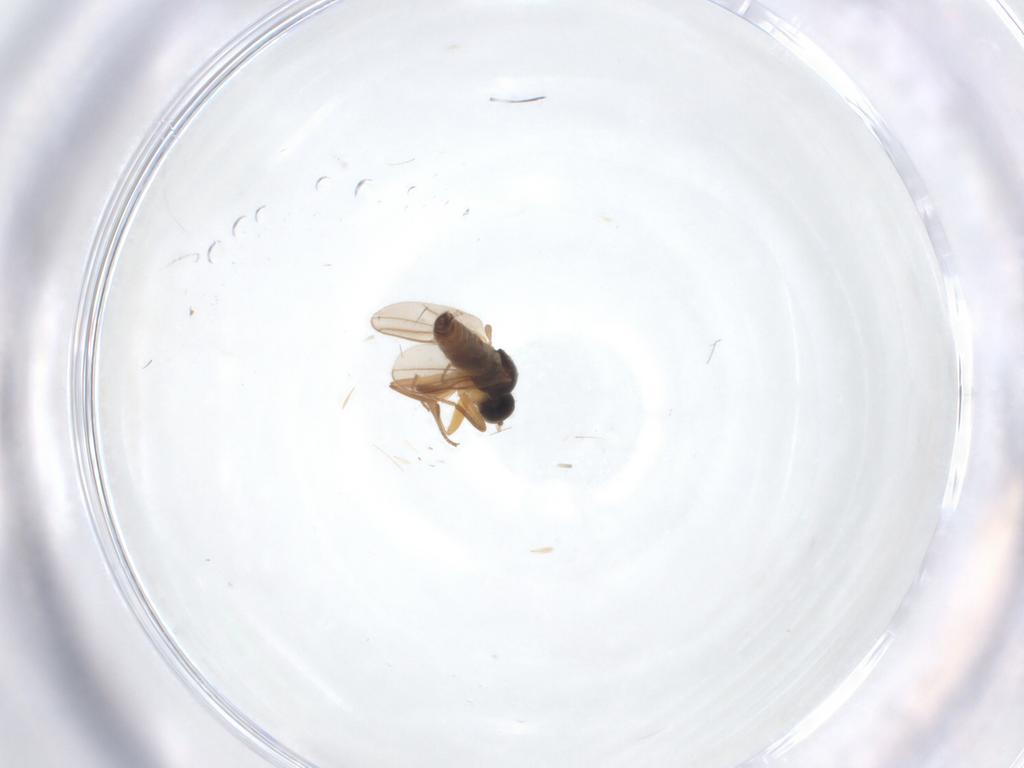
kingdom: Animalia
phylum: Arthropoda
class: Insecta
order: Diptera
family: Hybotidae
